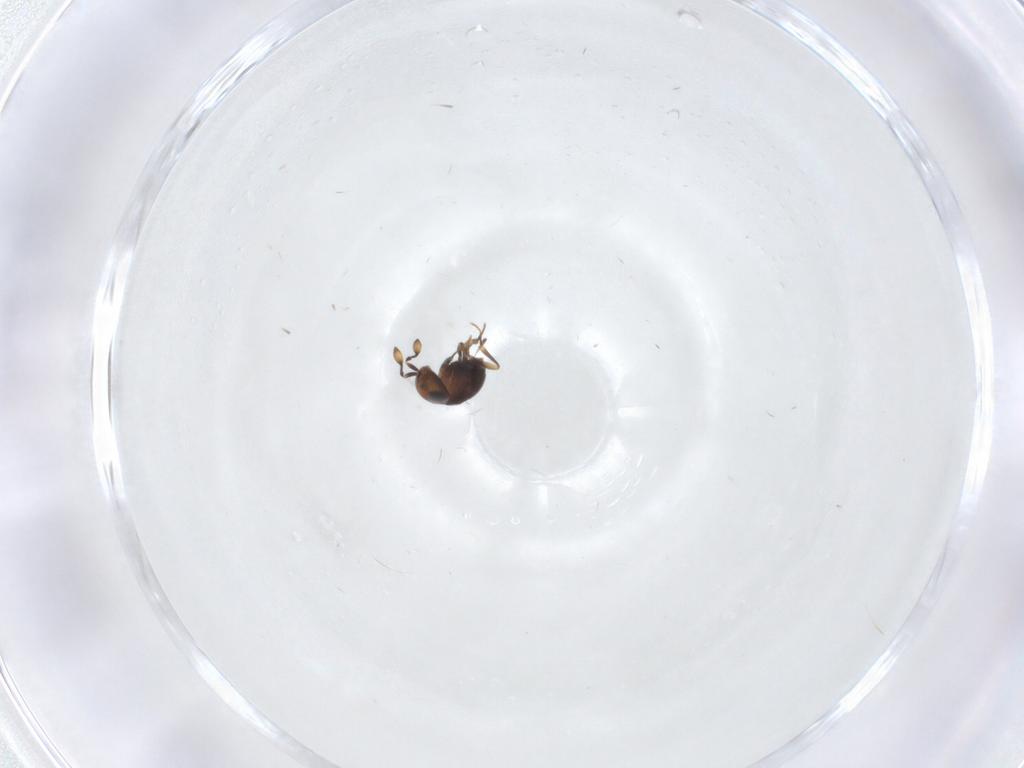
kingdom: Animalia
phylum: Arthropoda
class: Insecta
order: Hymenoptera
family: Scelionidae
